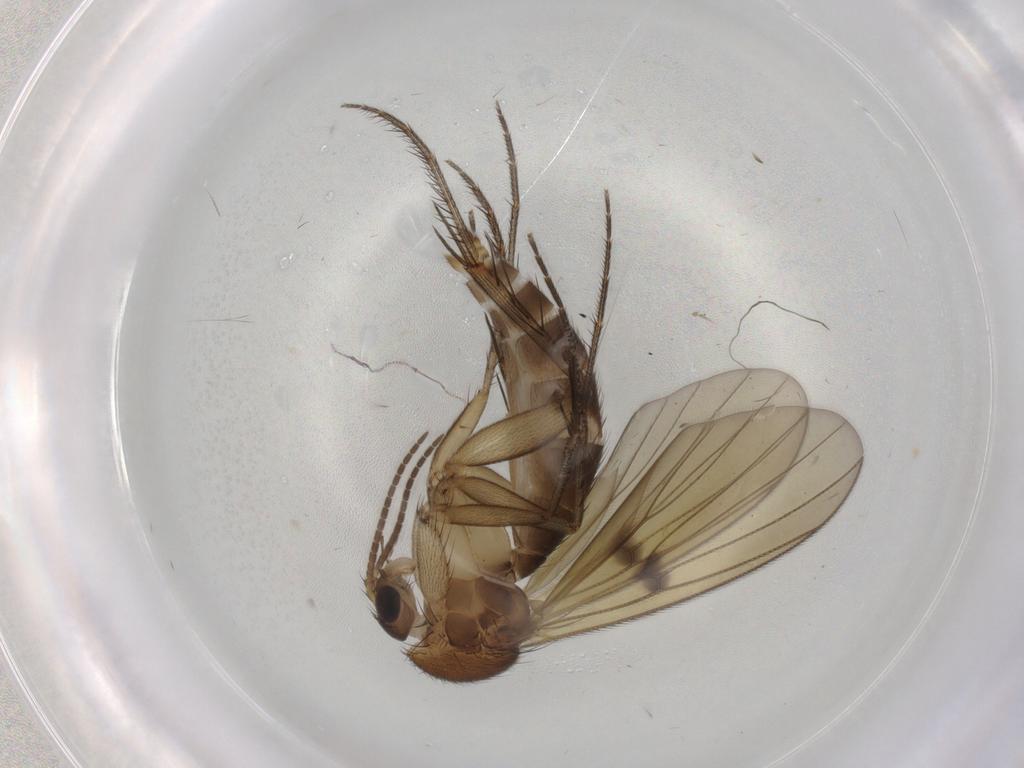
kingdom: Animalia
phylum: Arthropoda
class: Insecta
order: Diptera
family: Mycetophilidae
